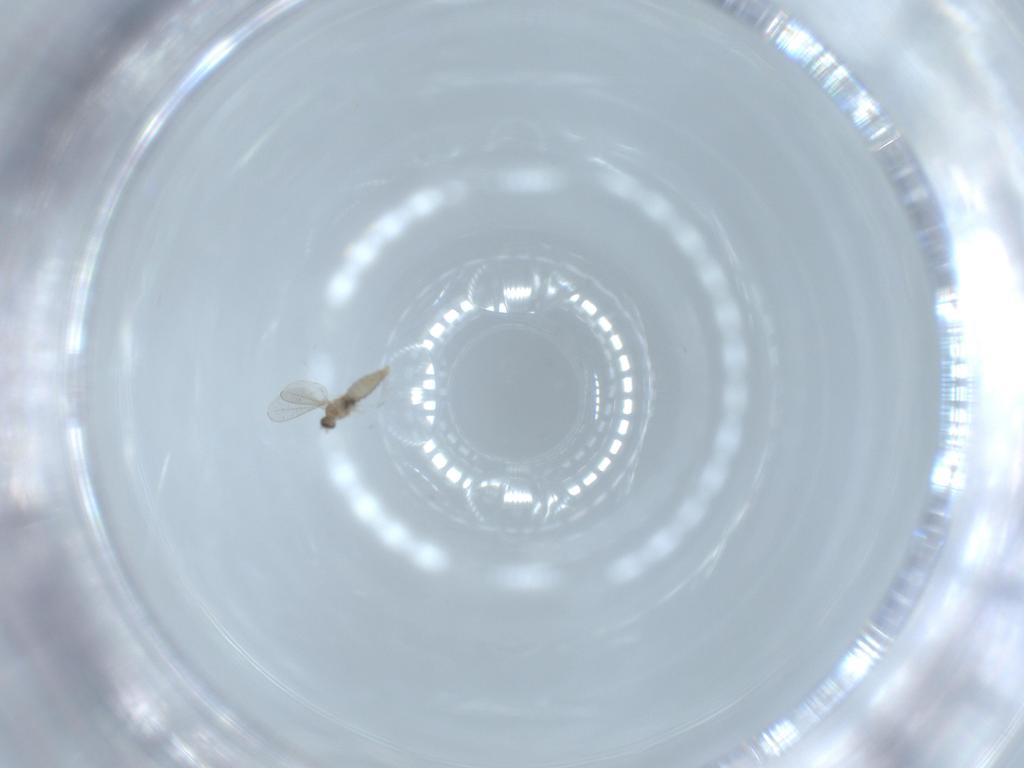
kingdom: Animalia
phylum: Arthropoda
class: Insecta
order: Diptera
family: Cecidomyiidae
